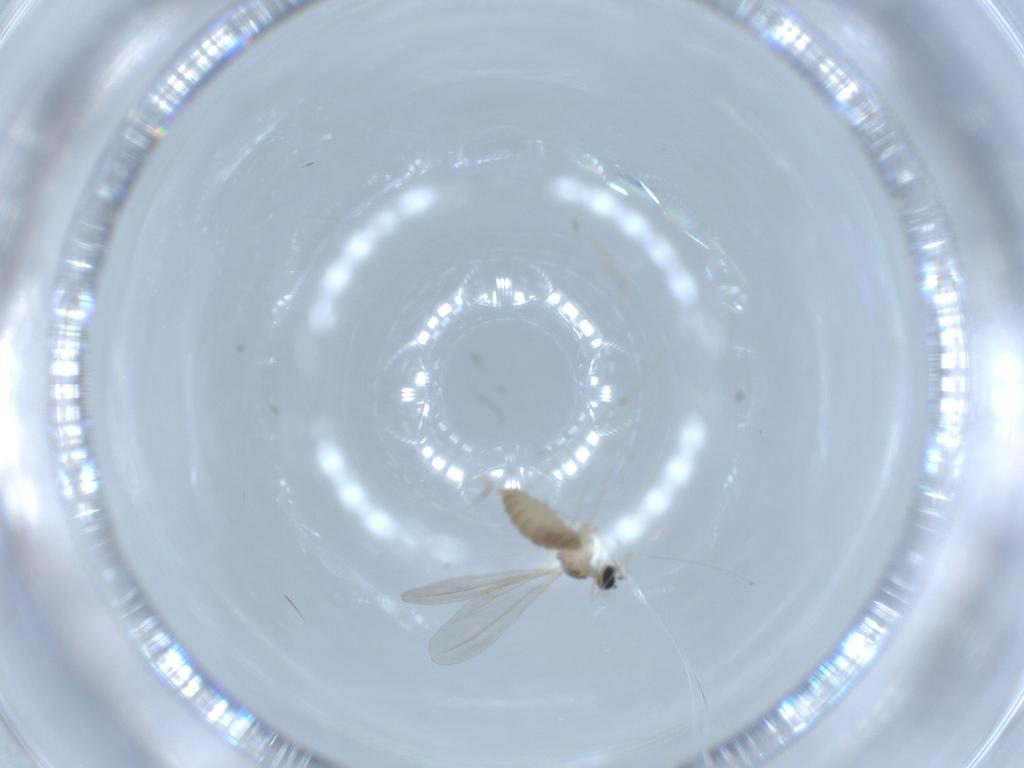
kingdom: Animalia
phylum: Arthropoda
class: Insecta
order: Diptera
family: Cecidomyiidae
